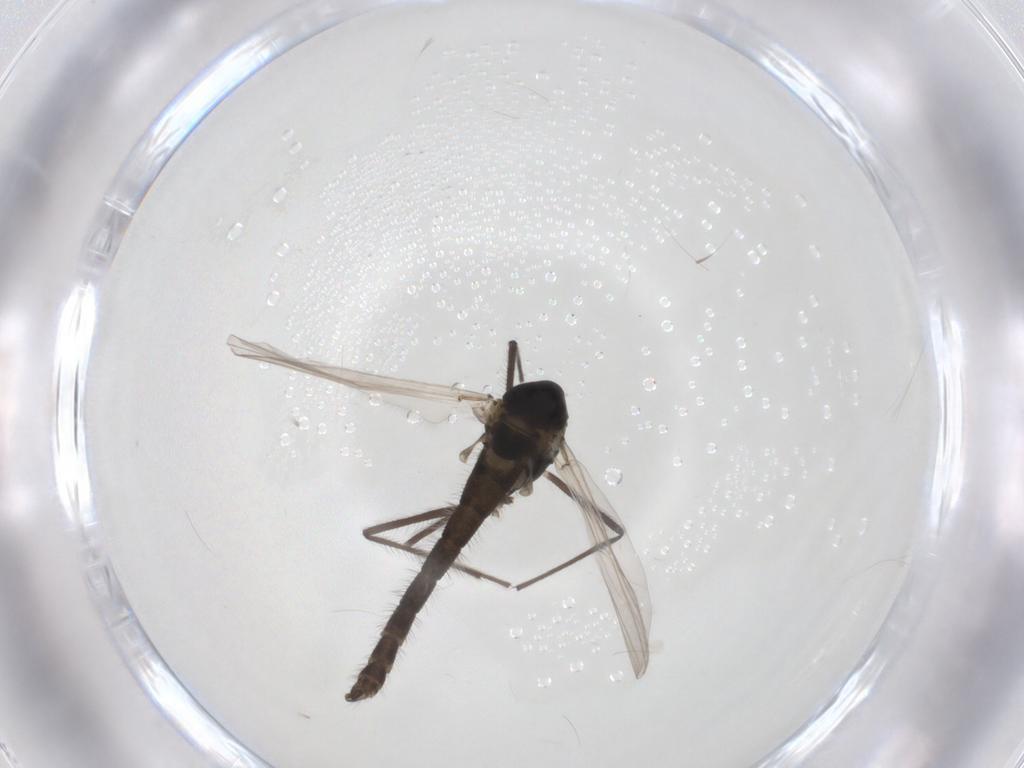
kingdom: Animalia
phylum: Arthropoda
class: Insecta
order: Diptera
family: Chironomidae
